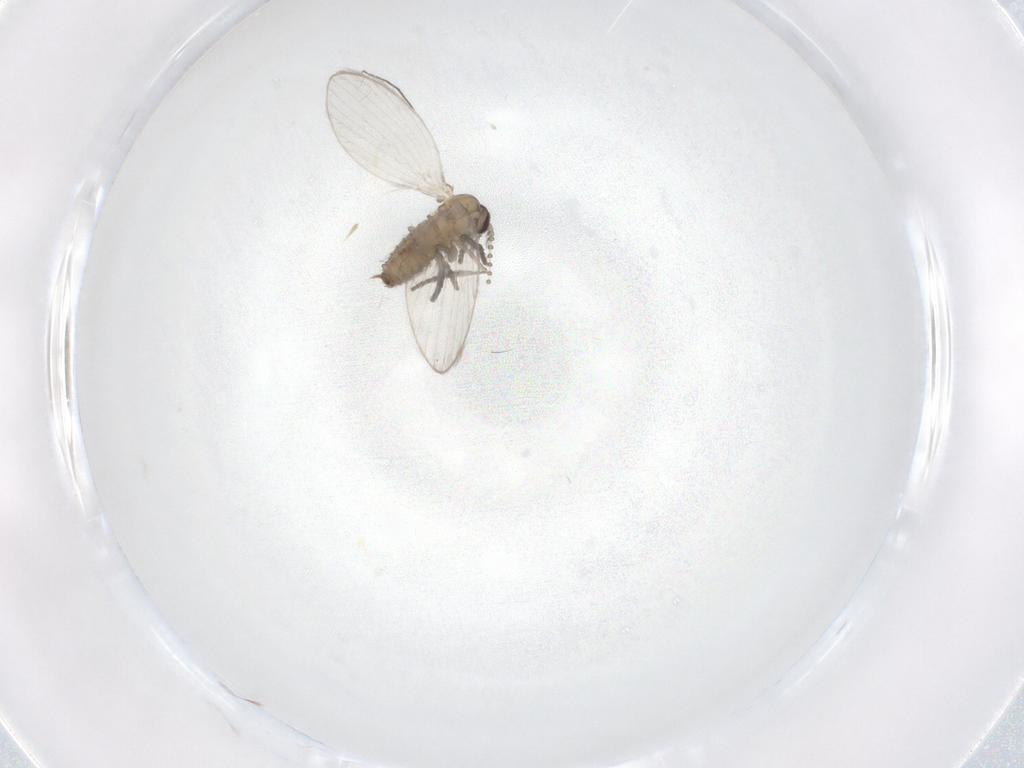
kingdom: Animalia
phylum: Arthropoda
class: Insecta
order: Diptera
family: Psychodidae
